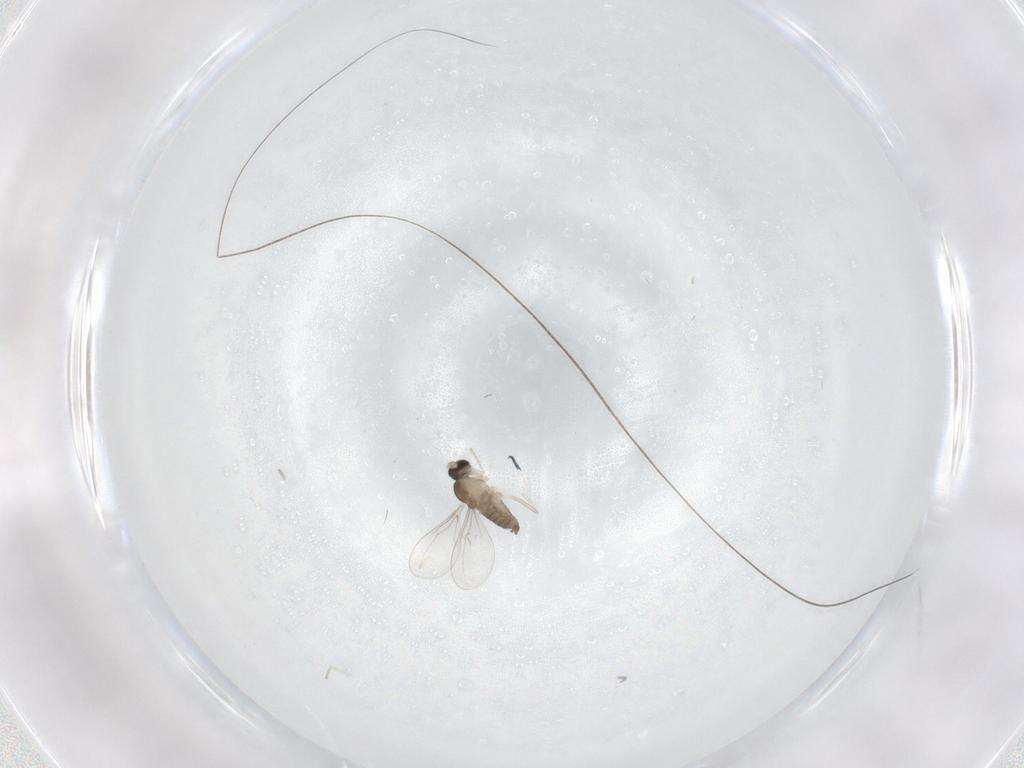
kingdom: Animalia
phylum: Arthropoda
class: Insecta
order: Diptera
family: Cecidomyiidae
